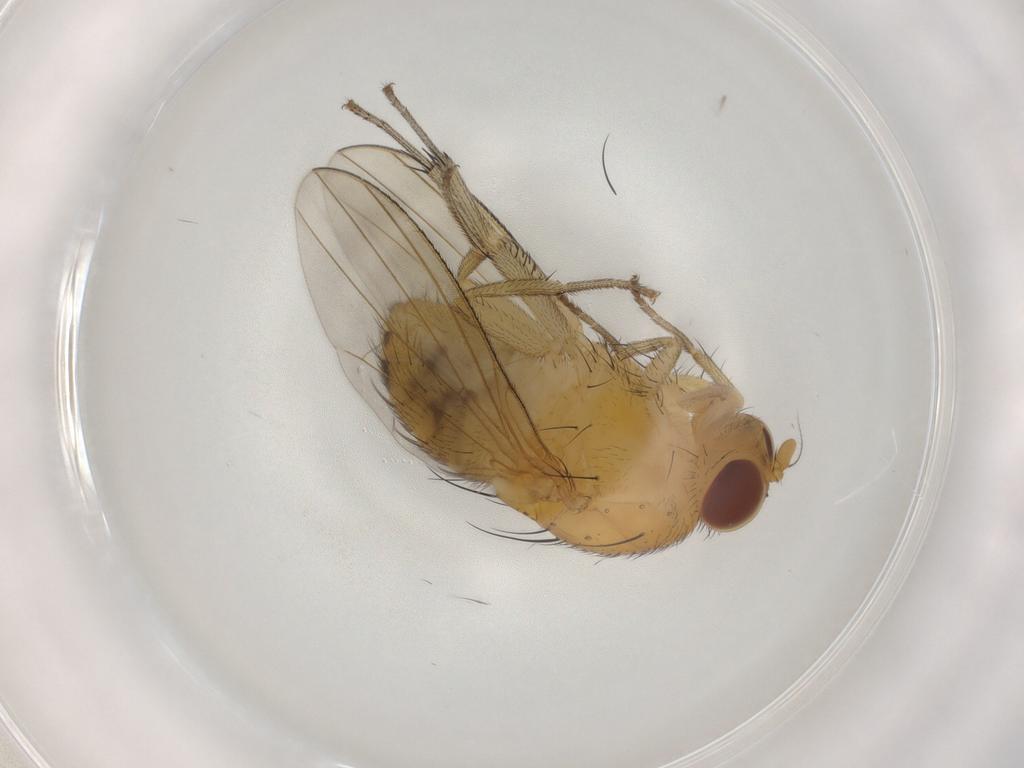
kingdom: Animalia
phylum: Arthropoda
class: Insecta
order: Diptera
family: Lauxaniidae
